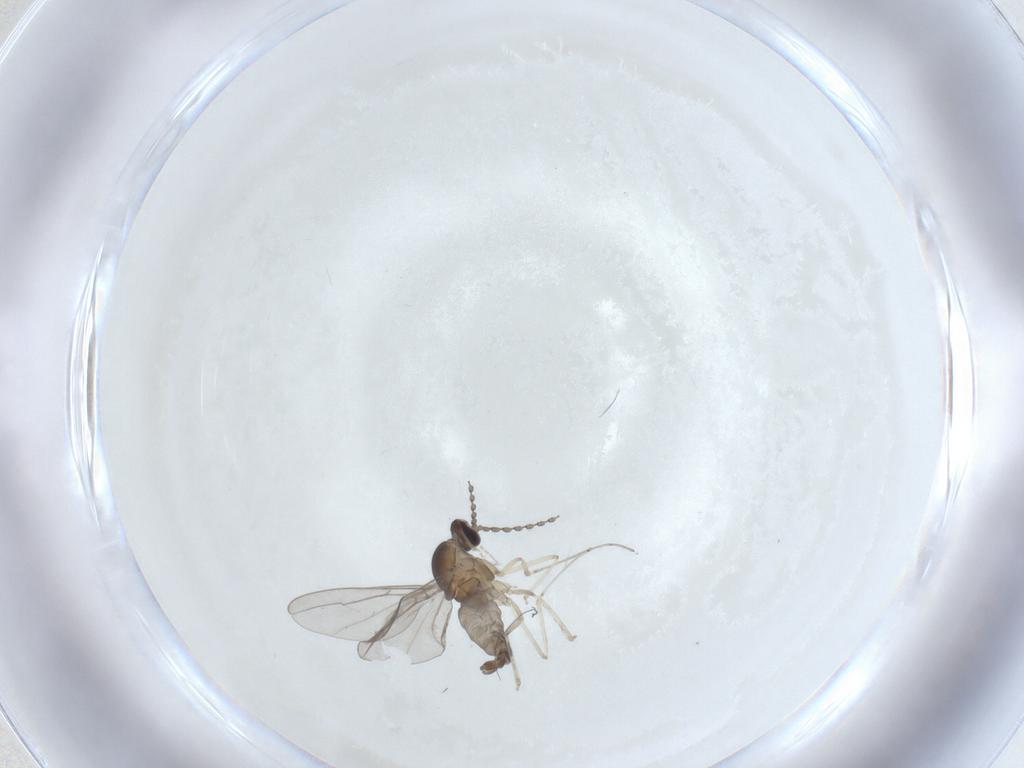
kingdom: Animalia
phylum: Arthropoda
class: Insecta
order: Diptera
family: Cecidomyiidae
